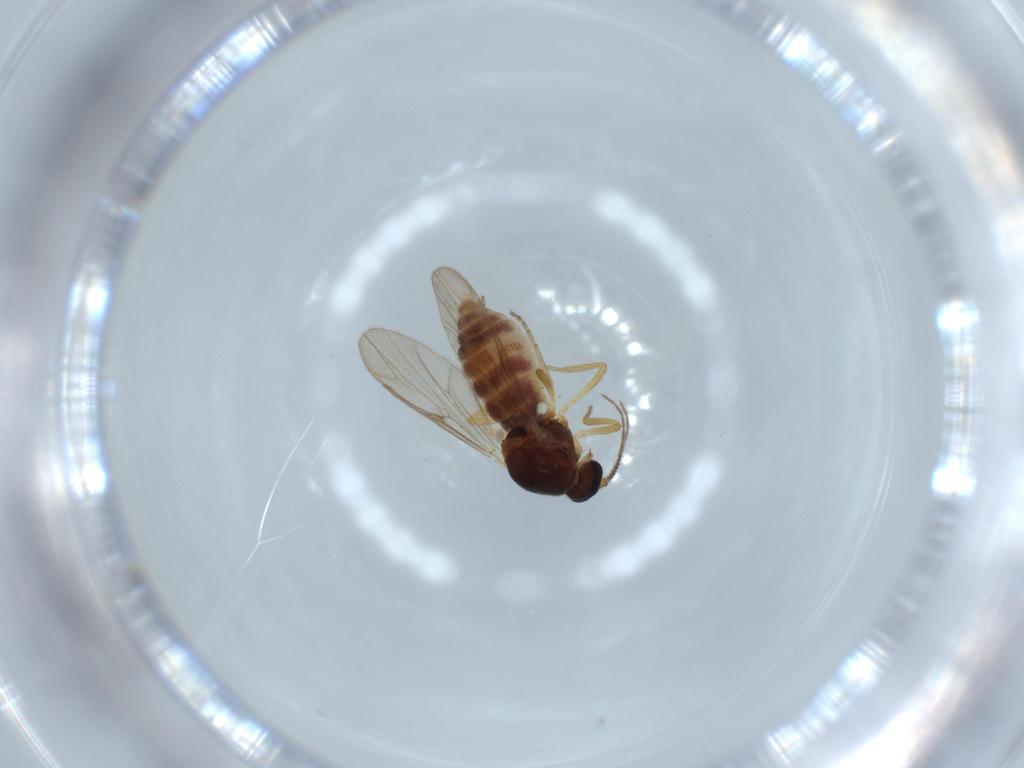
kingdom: Animalia
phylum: Arthropoda
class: Insecta
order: Diptera
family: Ceratopogonidae
